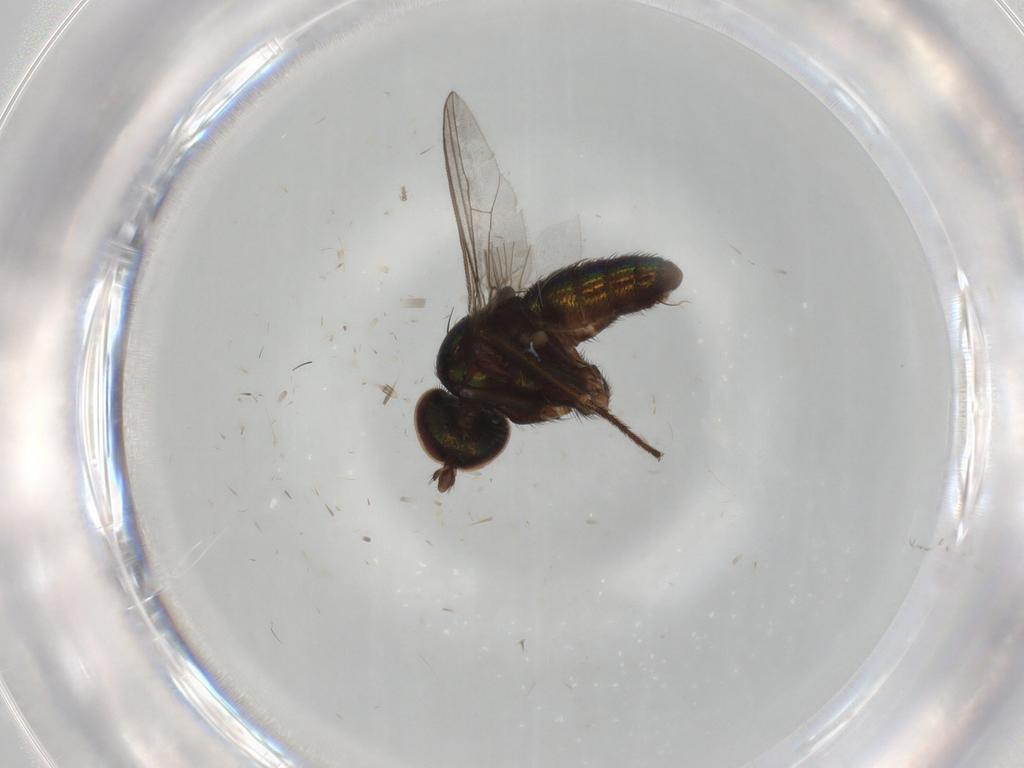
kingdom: Animalia
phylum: Arthropoda
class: Insecta
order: Diptera
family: Dolichopodidae
